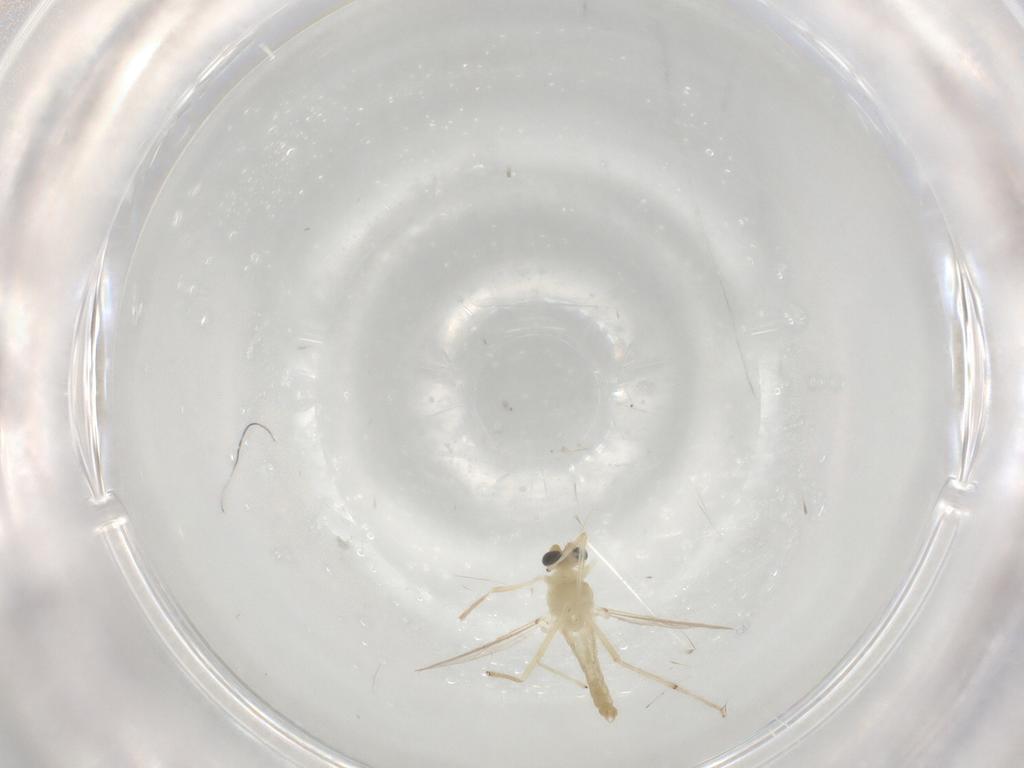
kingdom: Animalia
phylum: Arthropoda
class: Insecta
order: Diptera
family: Chironomidae
